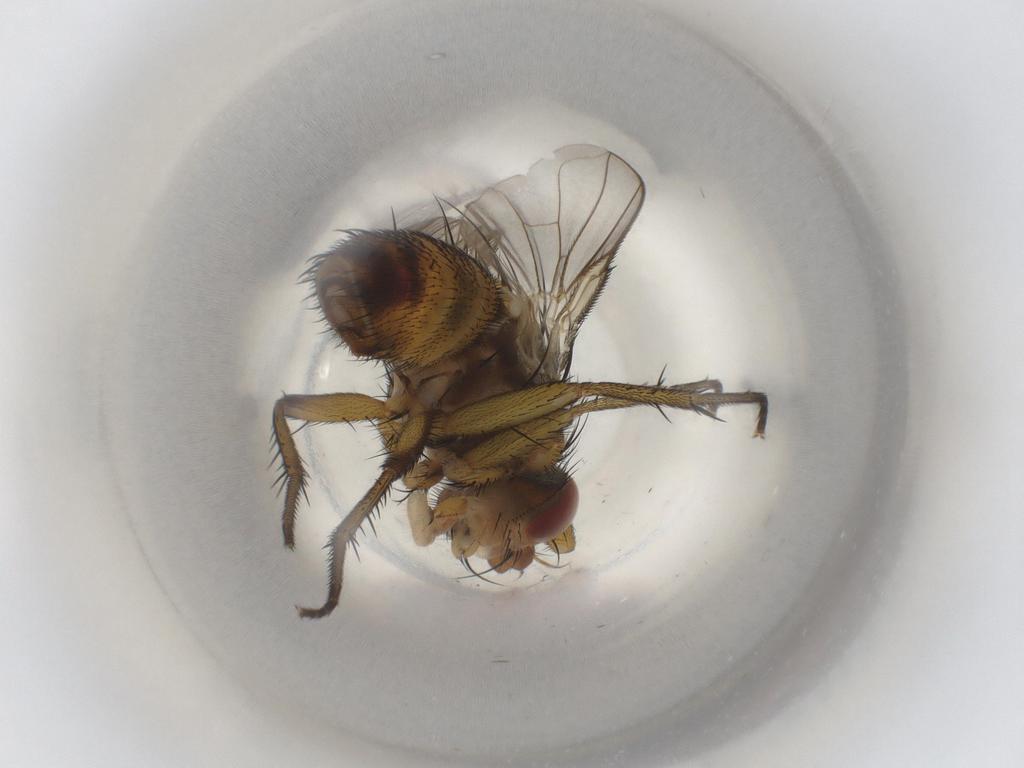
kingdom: Animalia
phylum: Arthropoda
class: Insecta
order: Diptera
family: Tachinidae
